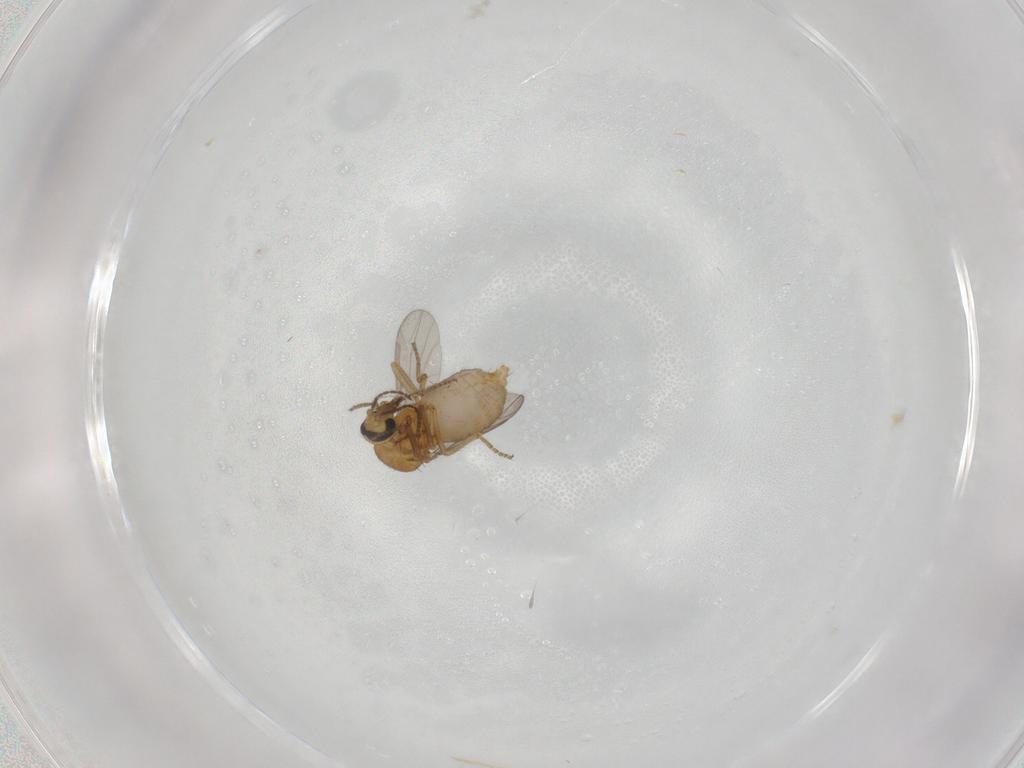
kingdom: Animalia
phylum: Arthropoda
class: Insecta
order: Diptera
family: Ceratopogonidae
